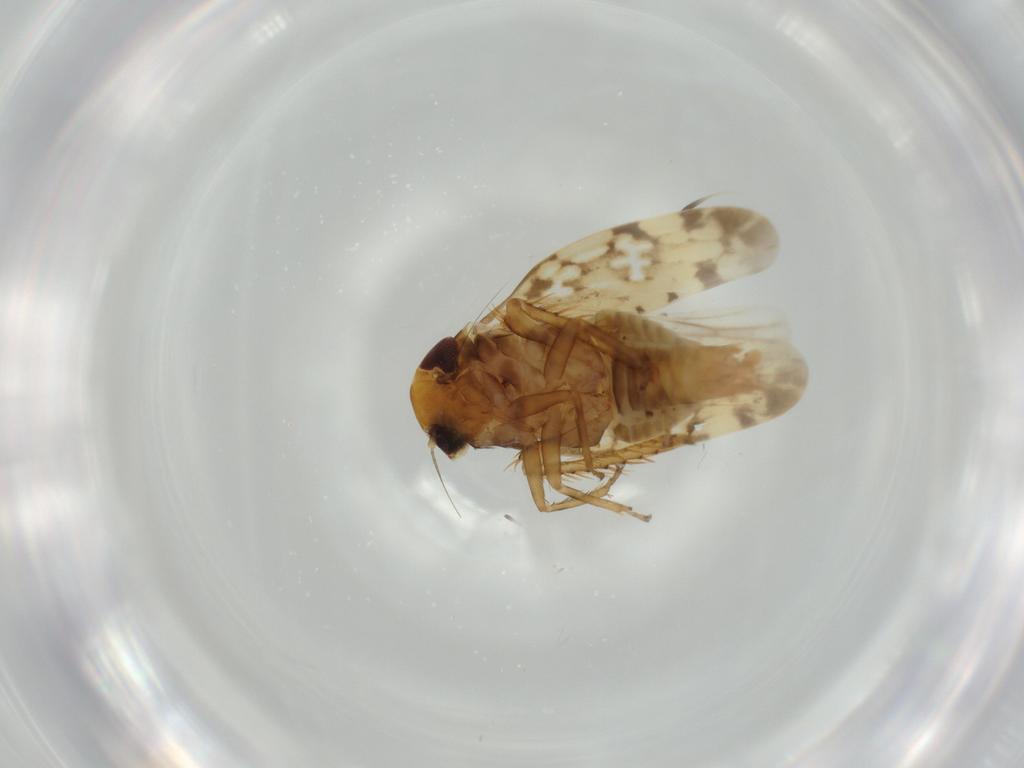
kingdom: Animalia
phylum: Arthropoda
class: Insecta
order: Hemiptera
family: Cicadellidae
